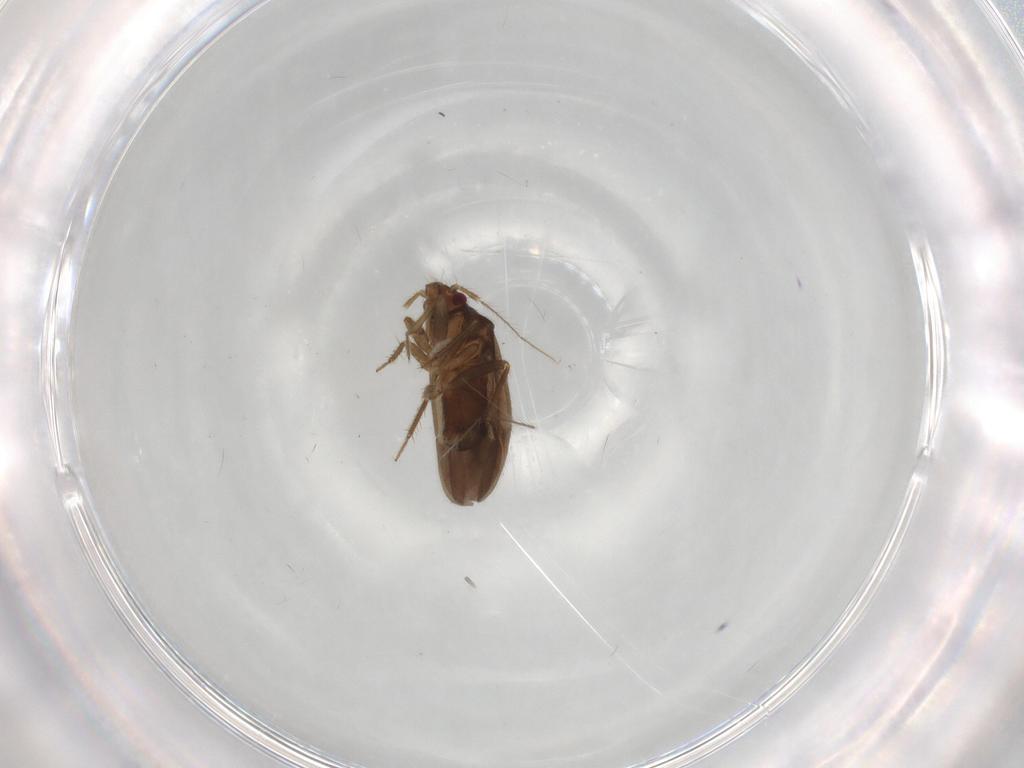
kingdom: Animalia
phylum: Arthropoda
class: Insecta
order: Hemiptera
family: Ceratocombidae
